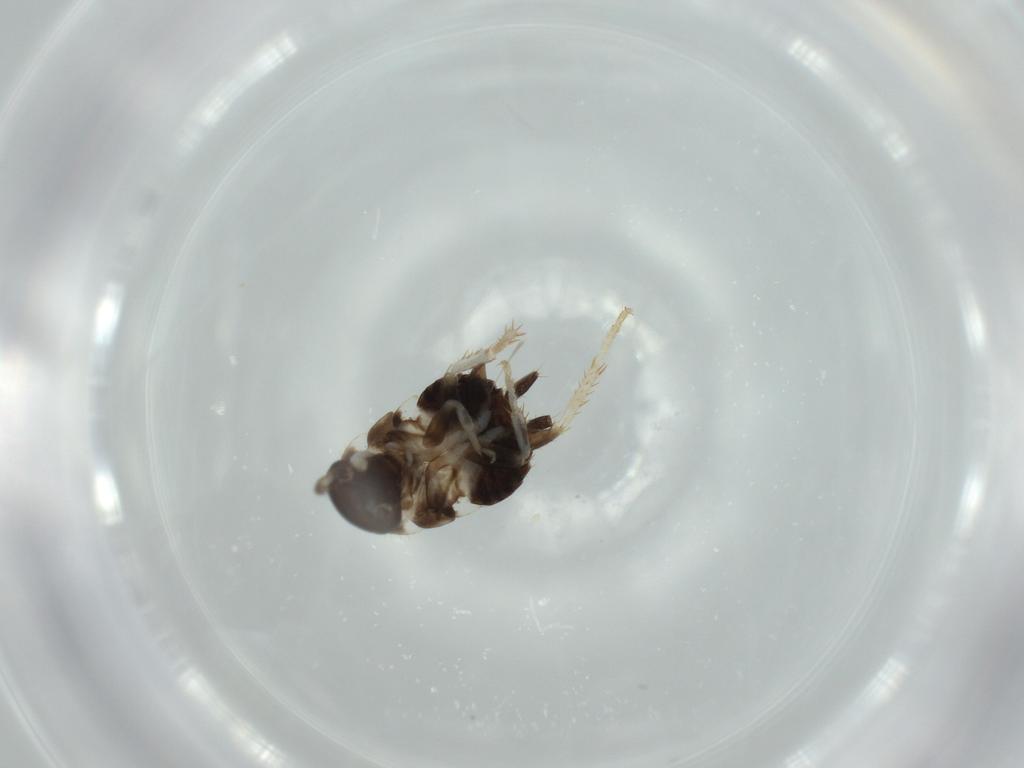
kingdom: Animalia
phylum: Arthropoda
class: Insecta
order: Blattodea
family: Ectobiidae
